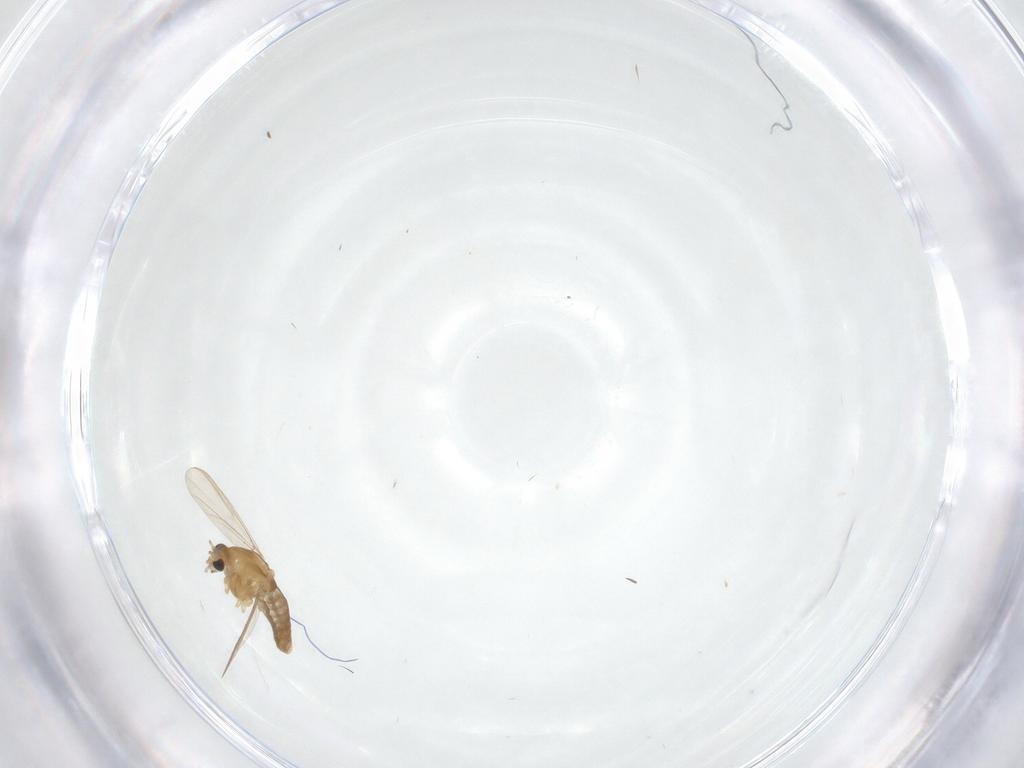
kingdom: Animalia
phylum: Arthropoda
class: Insecta
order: Diptera
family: Chironomidae
